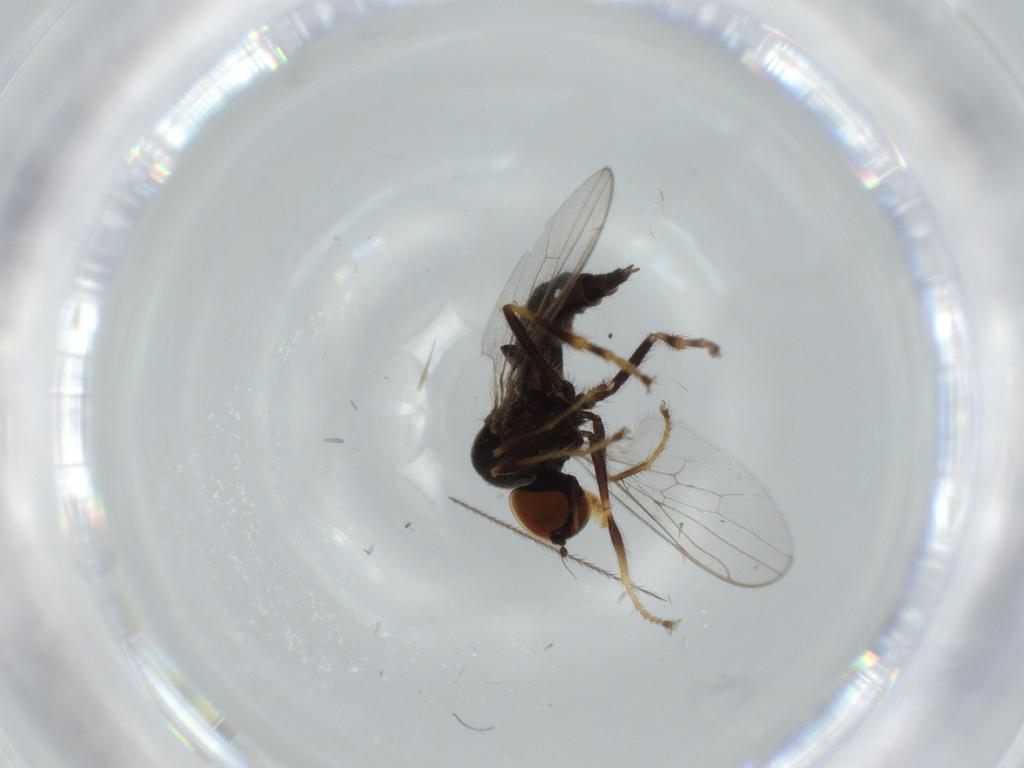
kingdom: Animalia
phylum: Arthropoda
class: Insecta
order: Diptera
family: Hybotidae
